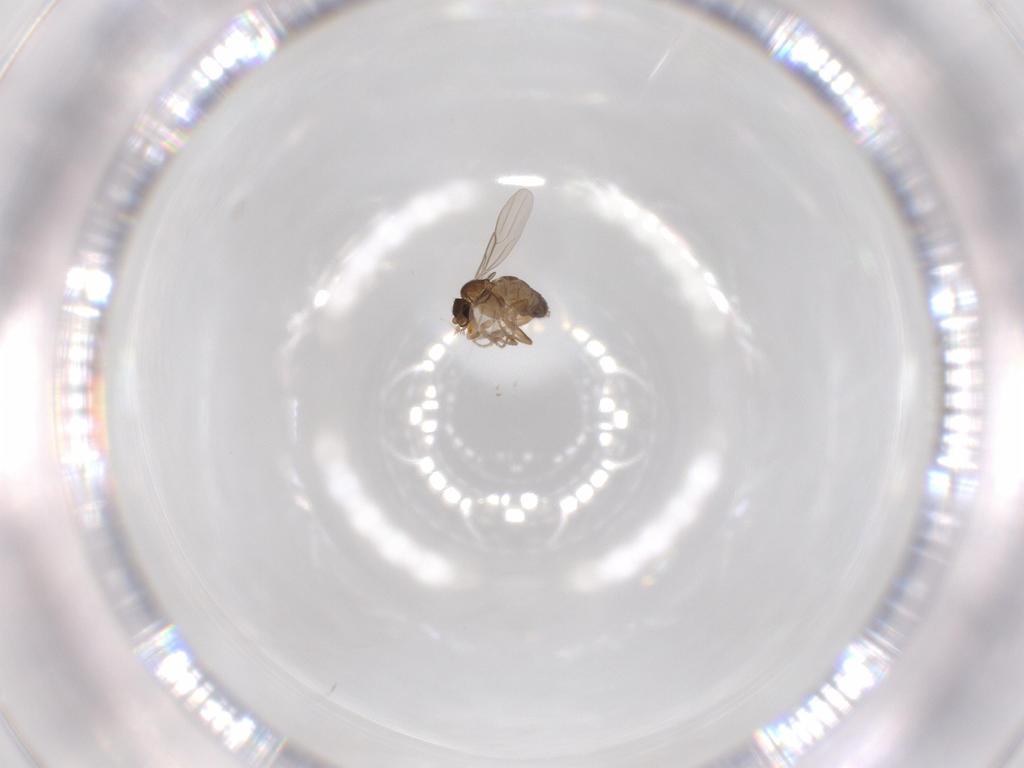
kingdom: Animalia
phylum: Arthropoda
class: Insecta
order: Diptera
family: Phoridae
